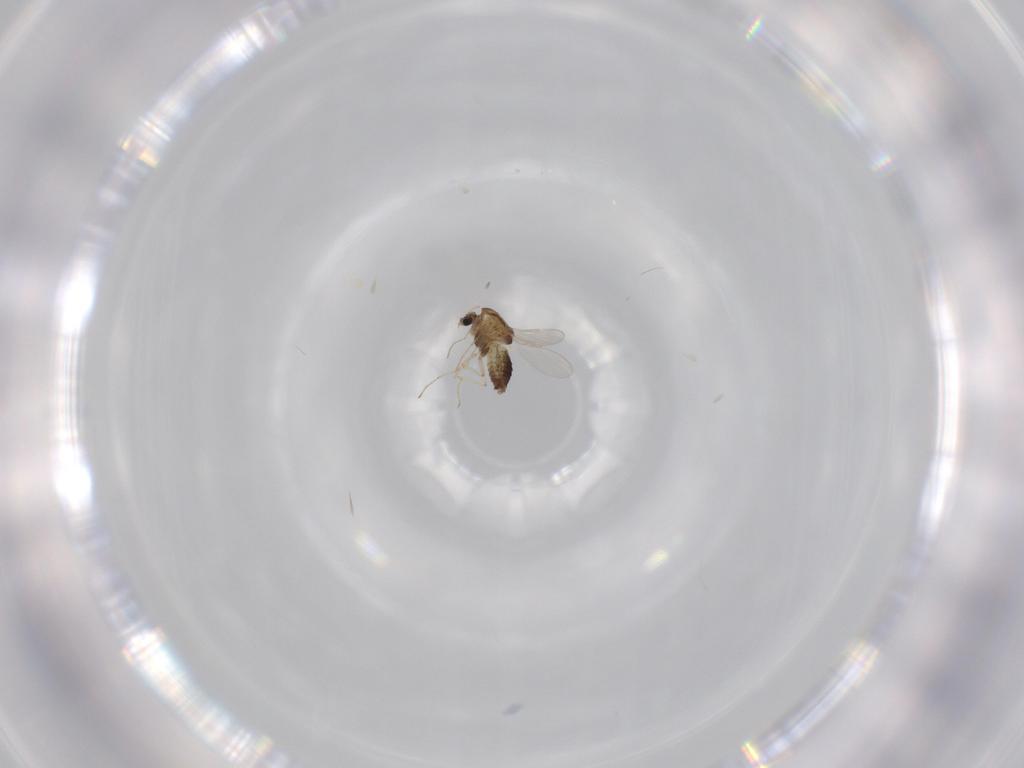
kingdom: Animalia
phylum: Arthropoda
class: Insecta
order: Diptera
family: Chironomidae
